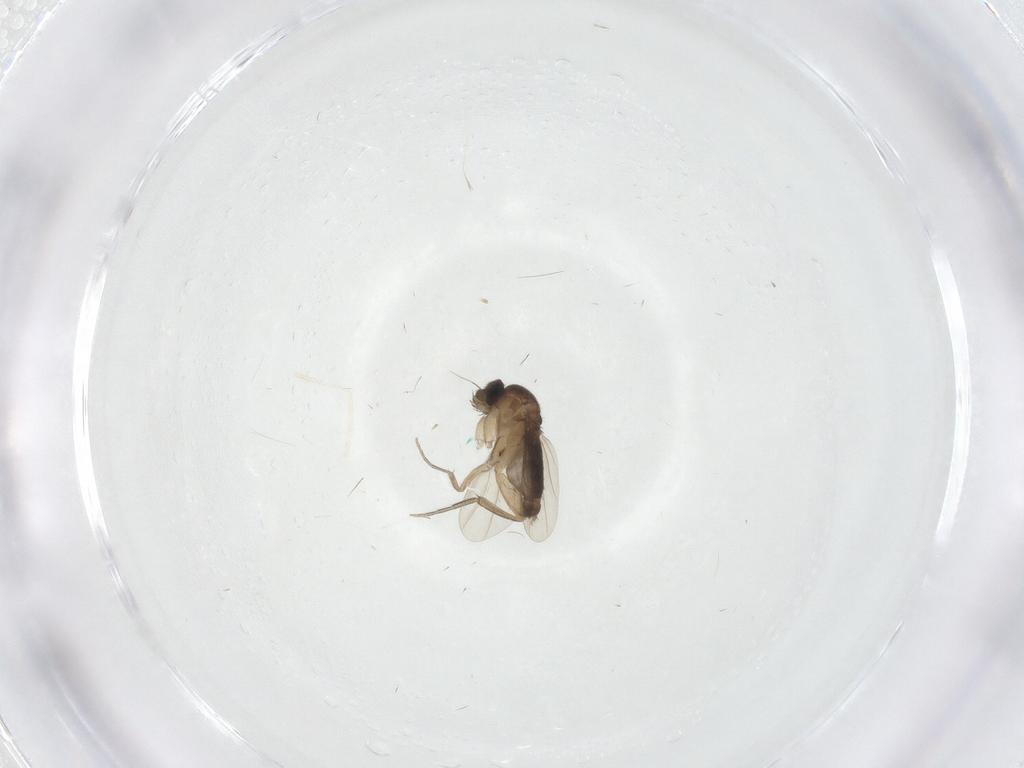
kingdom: Animalia
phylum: Arthropoda
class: Insecta
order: Diptera
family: Cecidomyiidae
